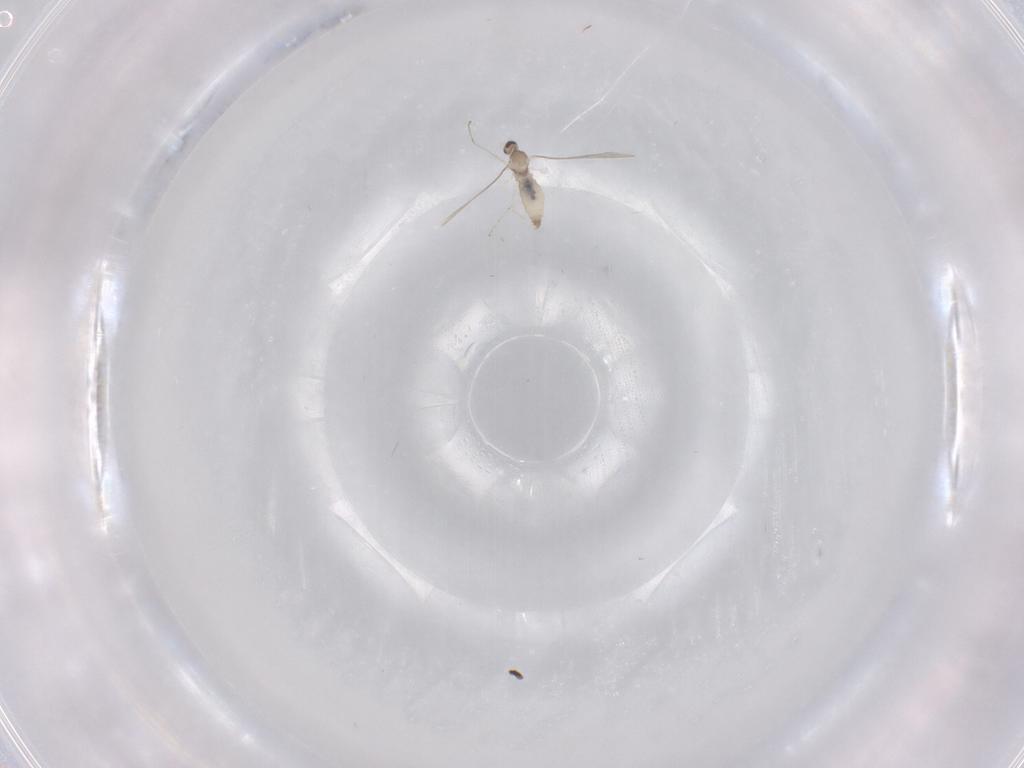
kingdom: Animalia
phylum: Arthropoda
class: Insecta
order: Diptera
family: Cecidomyiidae
